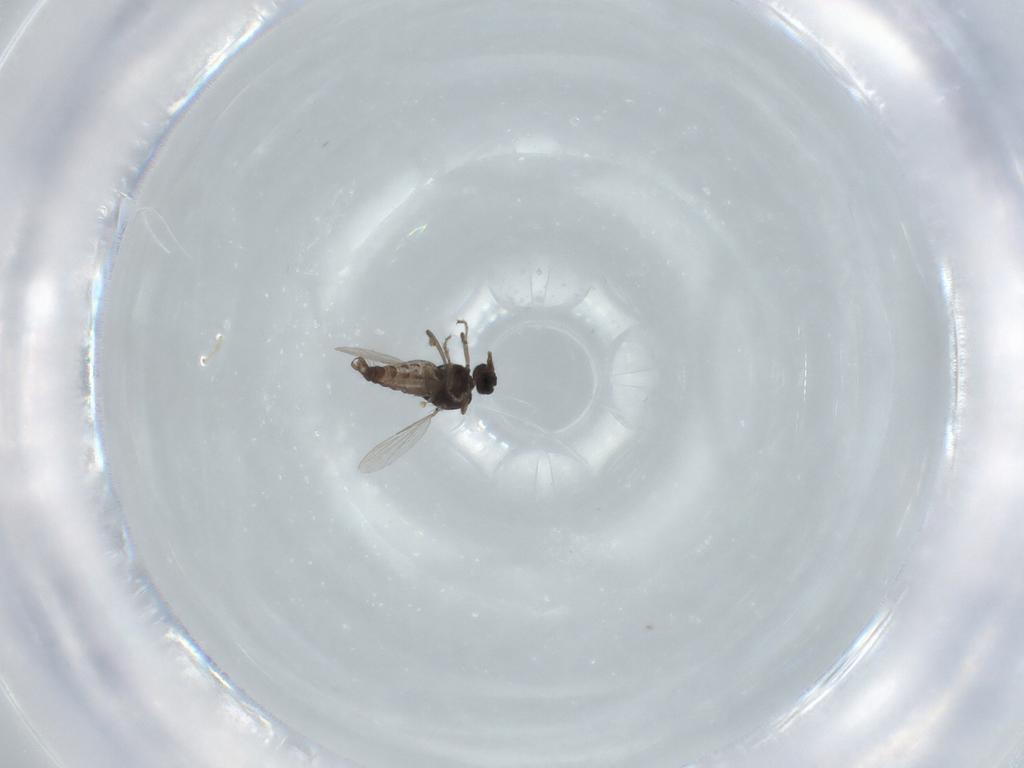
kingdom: Animalia
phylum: Arthropoda
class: Insecta
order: Diptera
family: Ceratopogonidae
